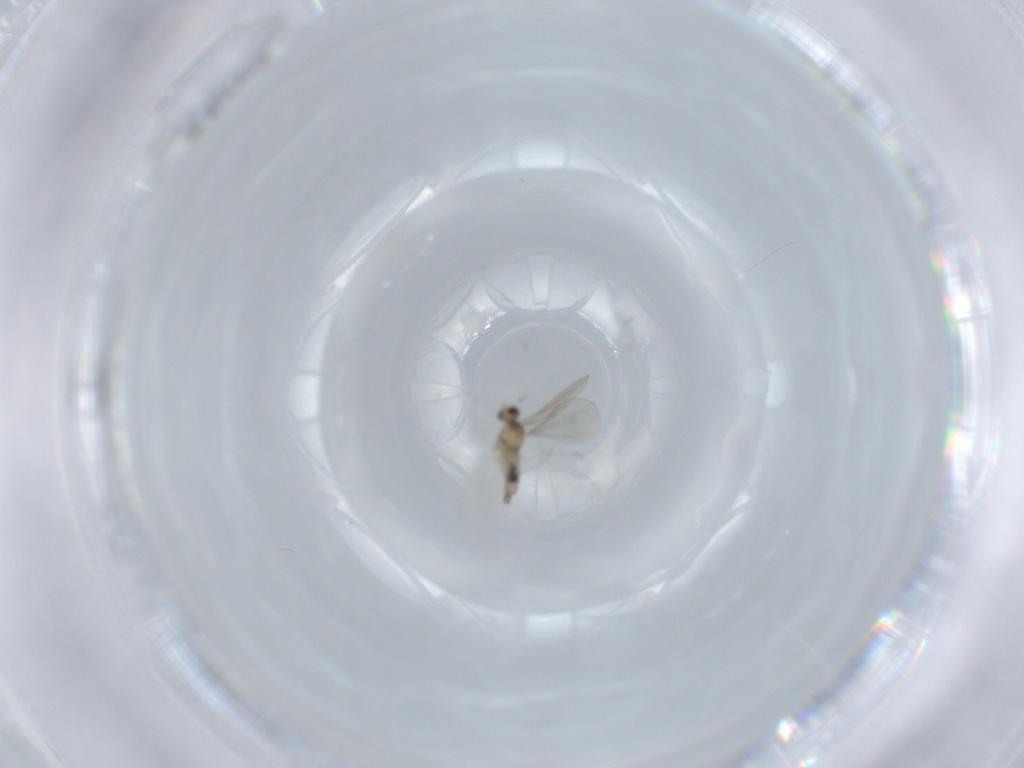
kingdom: Animalia
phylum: Arthropoda
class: Insecta
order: Diptera
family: Cecidomyiidae
